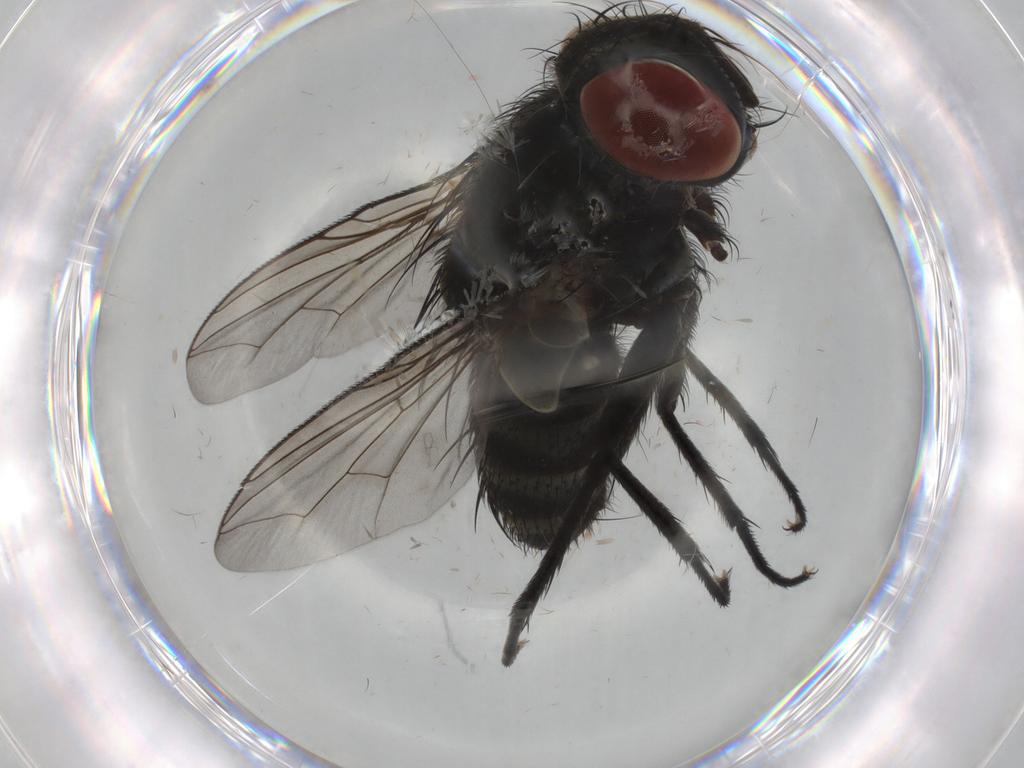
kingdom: Animalia
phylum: Arthropoda
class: Insecta
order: Diptera
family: Sarcophagidae
